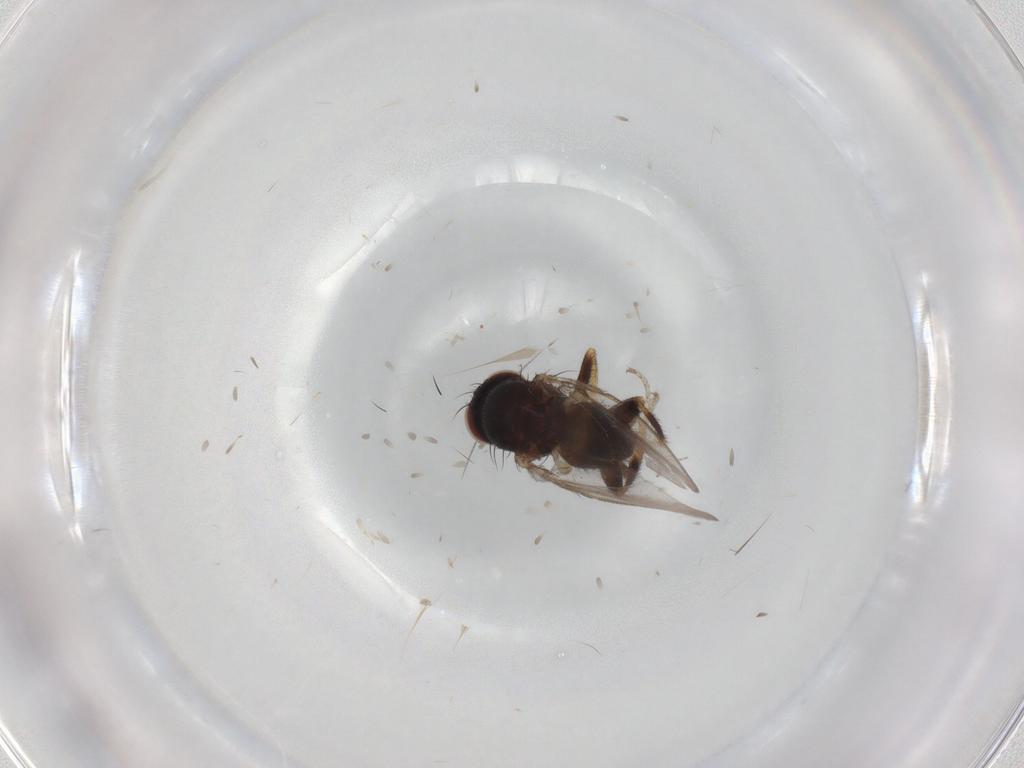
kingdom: Animalia
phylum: Arthropoda
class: Insecta
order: Diptera
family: Milichiidae
